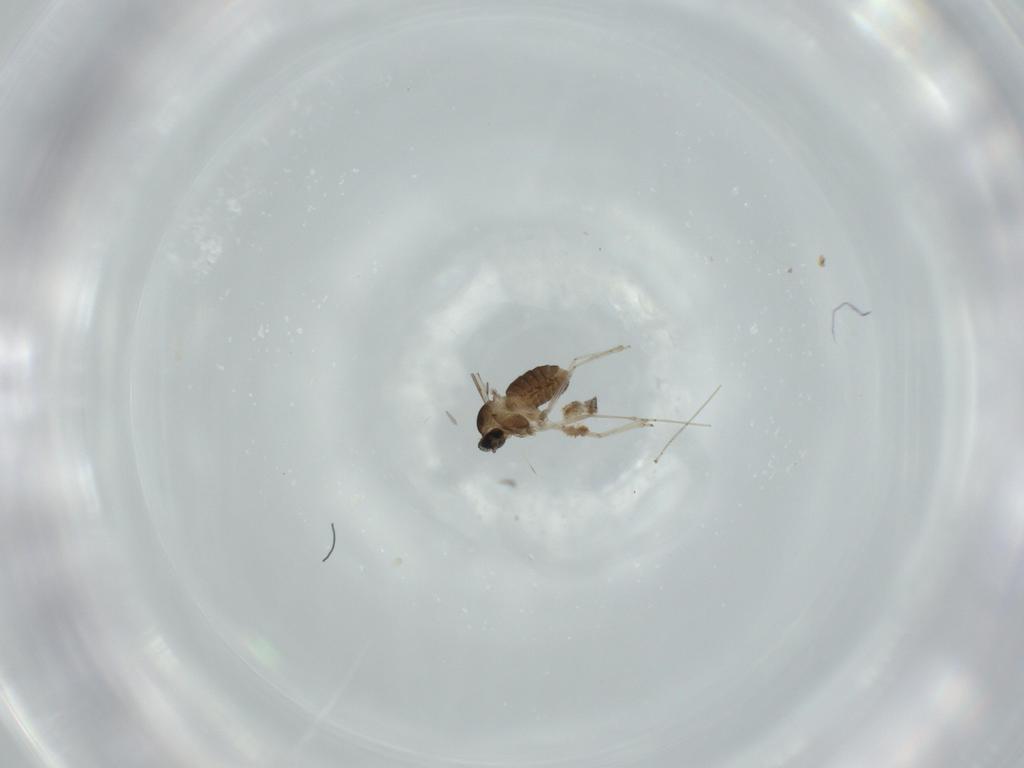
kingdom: Animalia
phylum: Arthropoda
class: Insecta
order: Diptera
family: Cecidomyiidae
